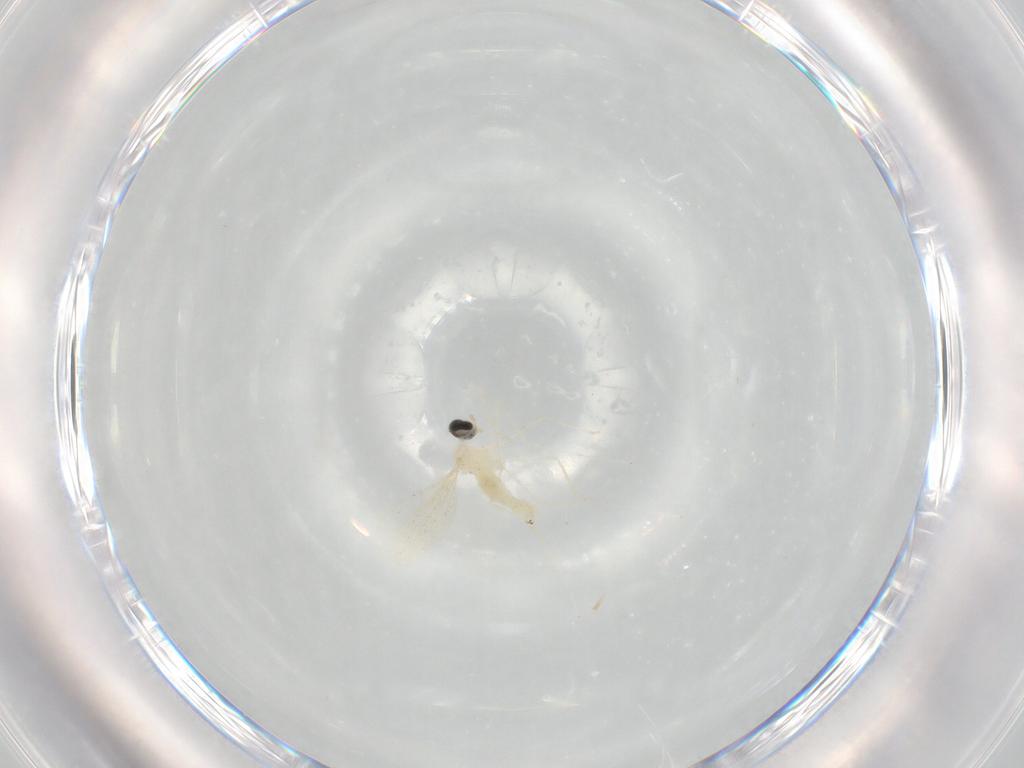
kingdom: Animalia
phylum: Arthropoda
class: Insecta
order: Diptera
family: Cecidomyiidae
